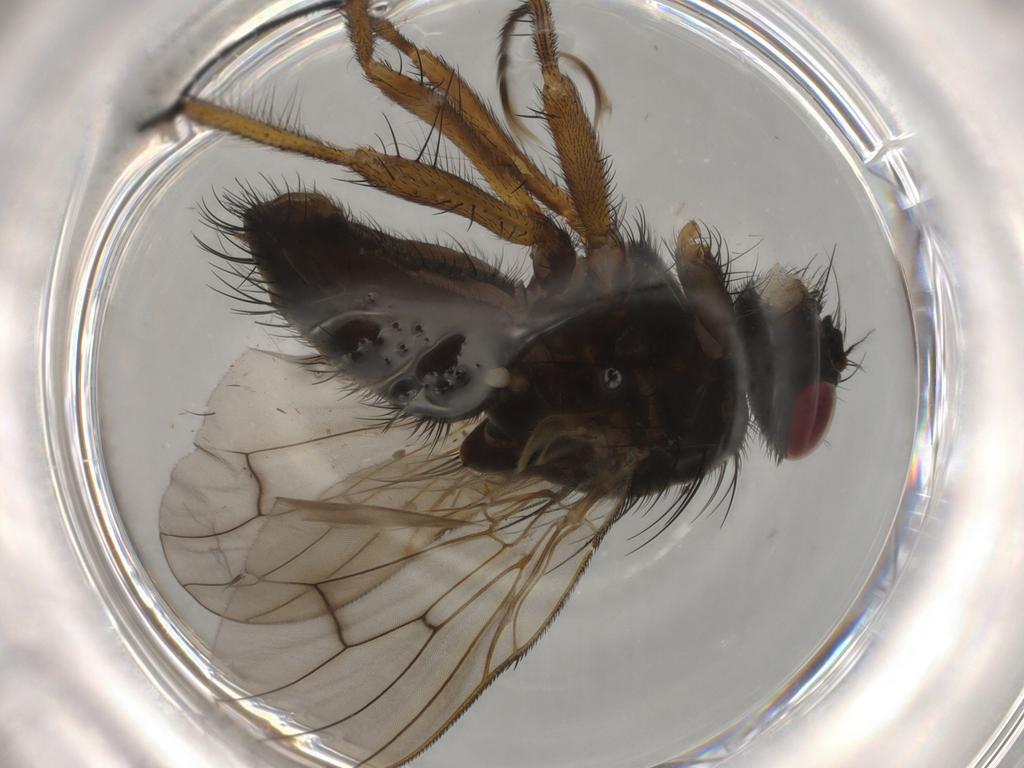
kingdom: Animalia
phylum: Arthropoda
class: Insecta
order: Diptera
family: Muscidae
